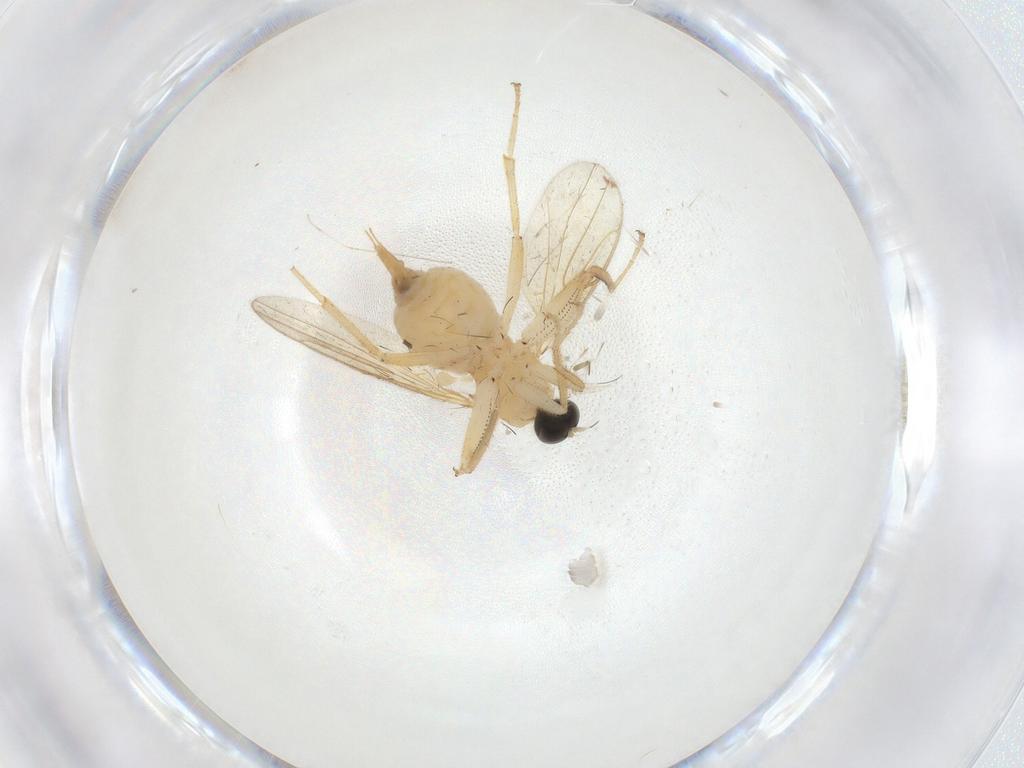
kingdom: Animalia
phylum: Arthropoda
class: Insecta
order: Diptera
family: Sciaridae
